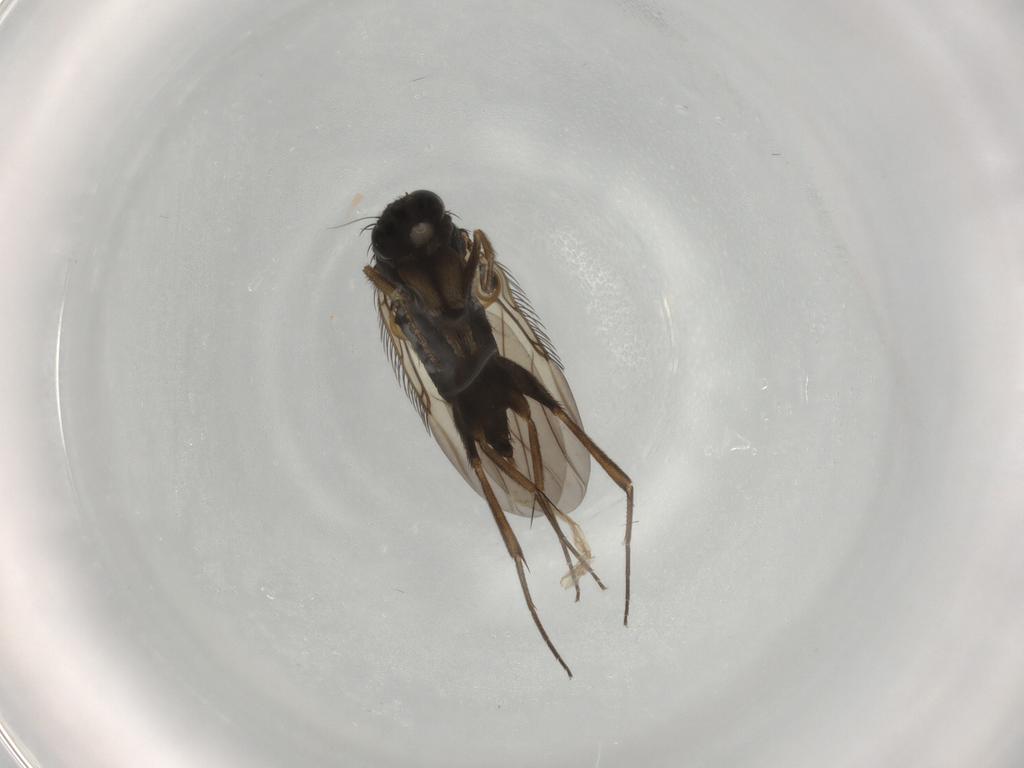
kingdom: Animalia
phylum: Arthropoda
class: Insecta
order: Diptera
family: Phoridae
